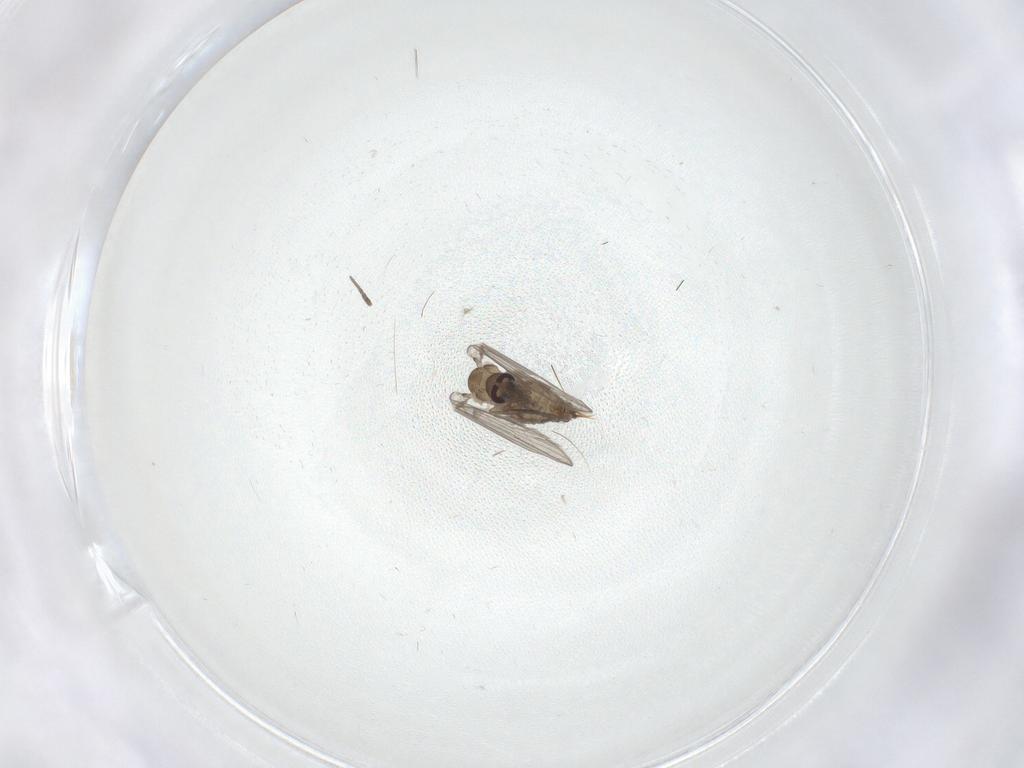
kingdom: Animalia
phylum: Arthropoda
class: Insecta
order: Diptera
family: Psychodidae
